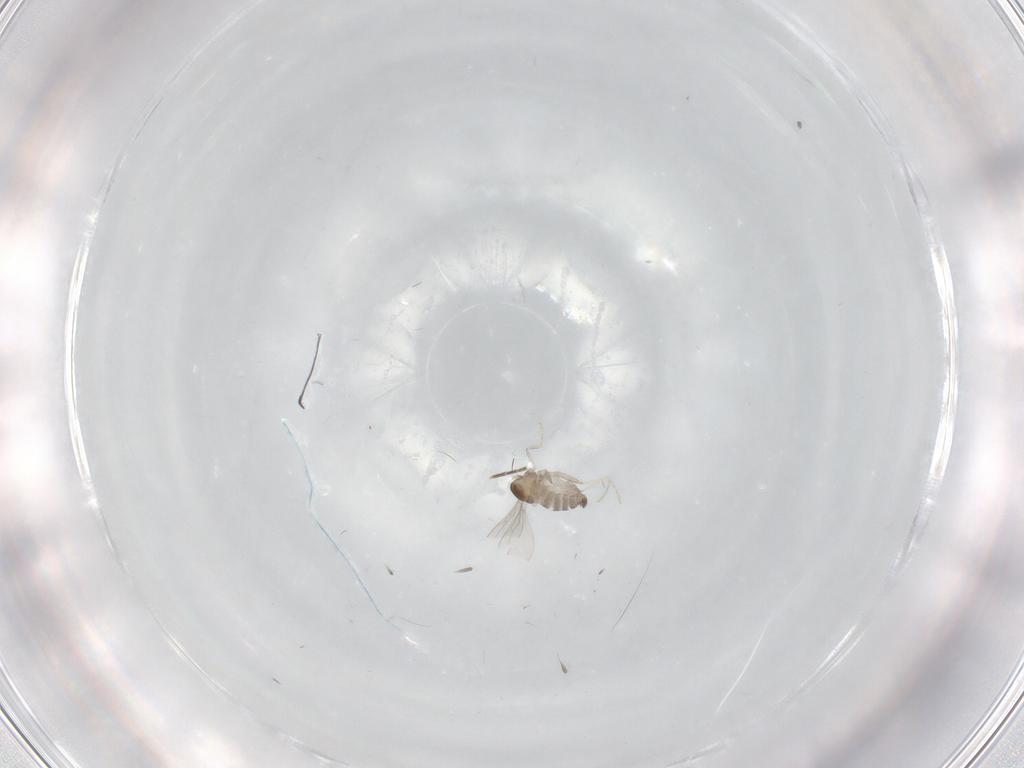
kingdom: Animalia
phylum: Arthropoda
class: Insecta
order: Diptera
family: Cecidomyiidae
